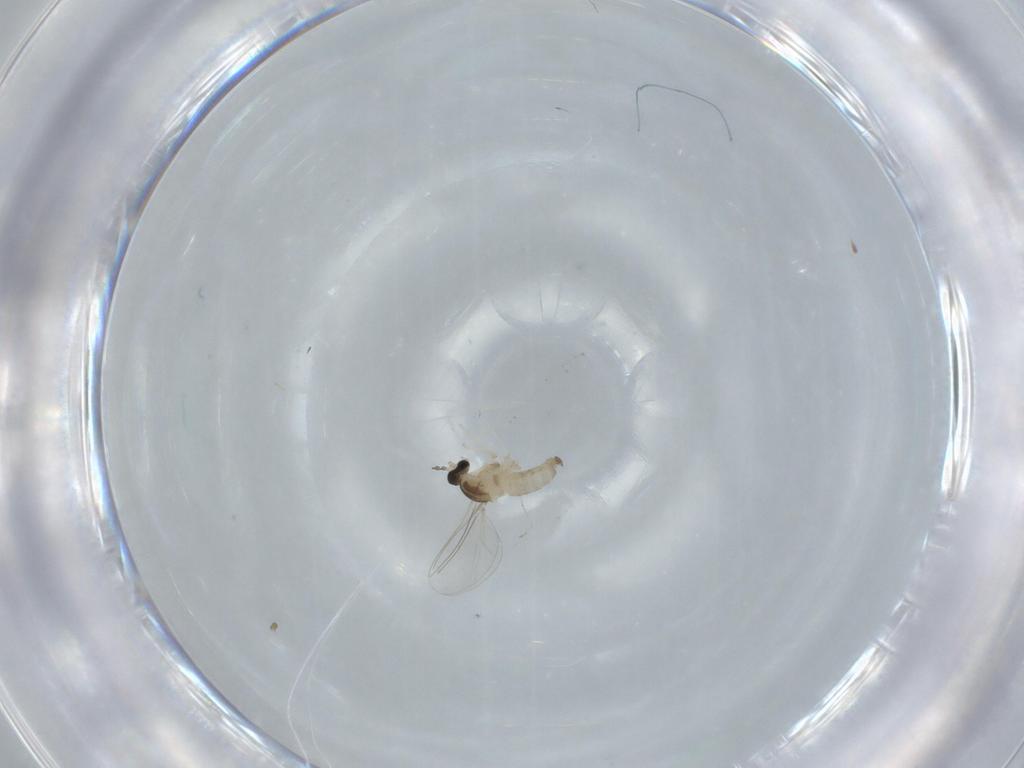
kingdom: Animalia
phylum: Arthropoda
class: Insecta
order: Diptera
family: Cecidomyiidae
